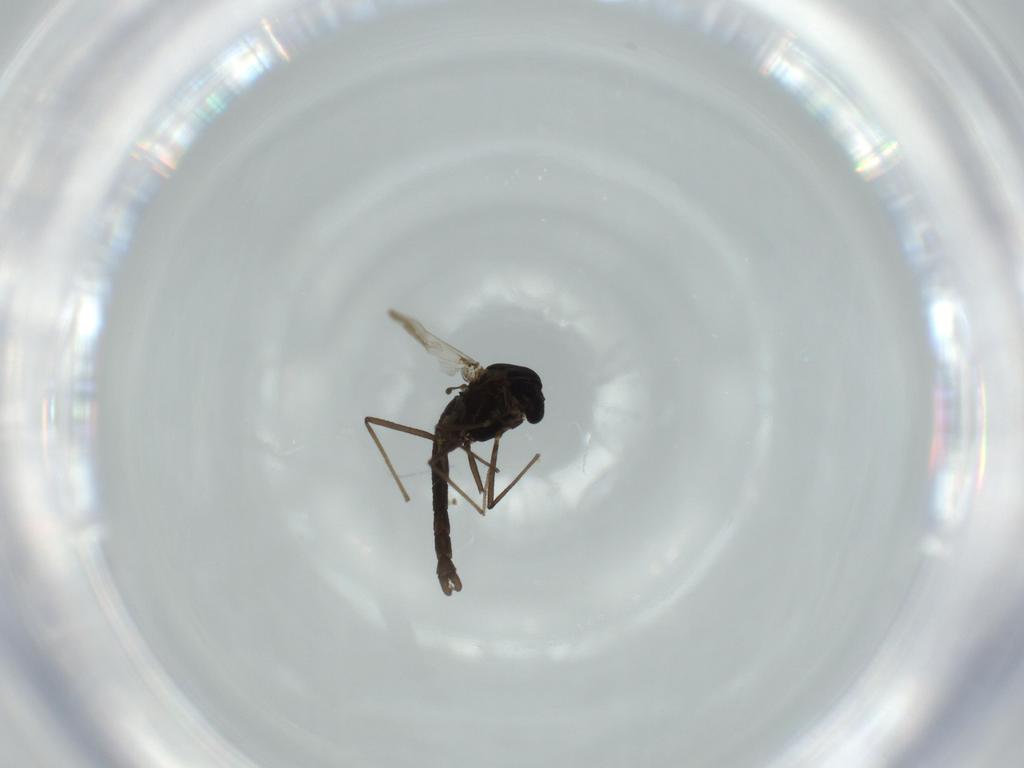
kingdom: Animalia
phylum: Arthropoda
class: Insecta
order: Diptera
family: Chironomidae
